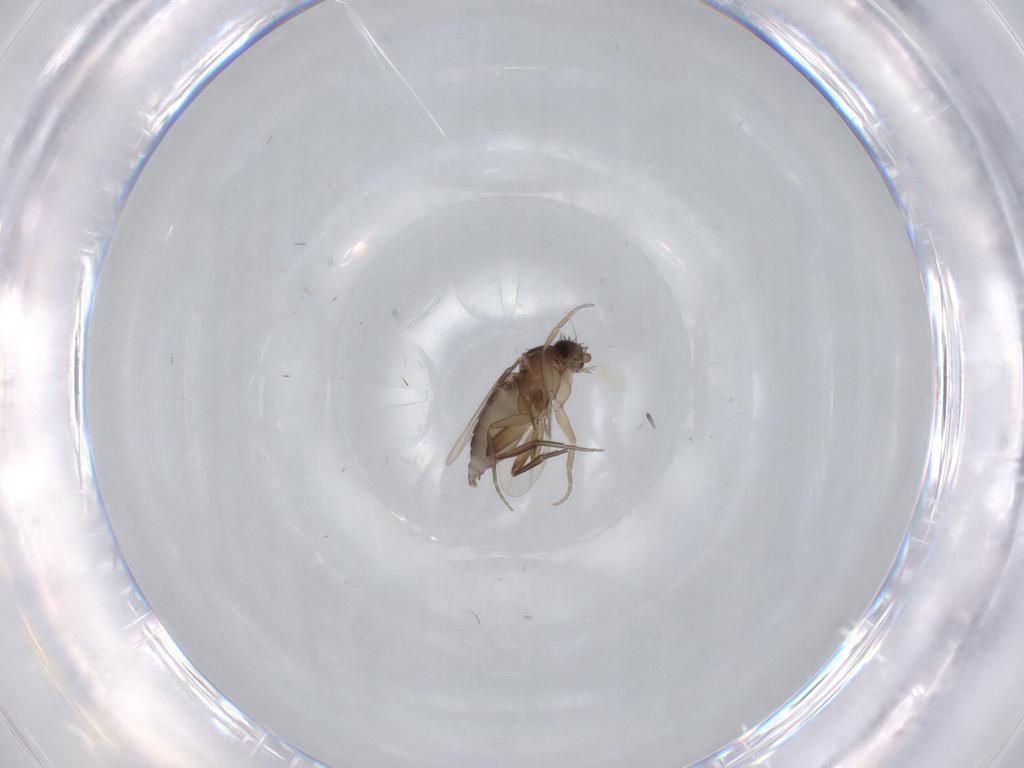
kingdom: Animalia
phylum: Arthropoda
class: Insecta
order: Diptera
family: Phoridae
